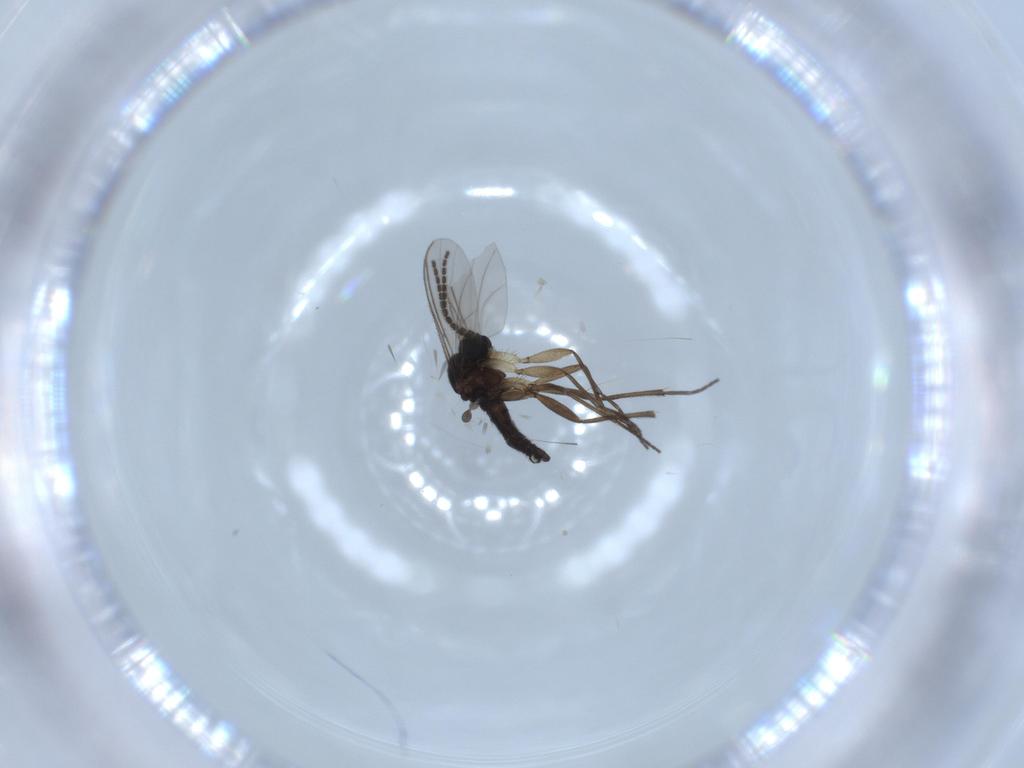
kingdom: Animalia
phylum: Arthropoda
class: Insecta
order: Diptera
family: Sciaridae
